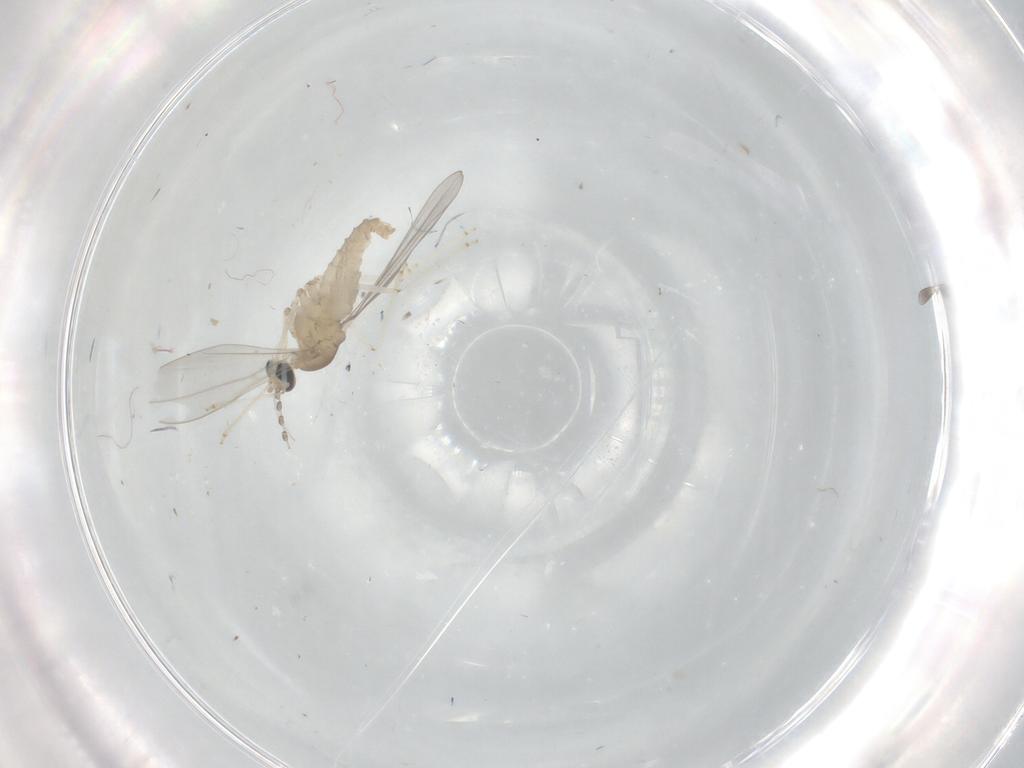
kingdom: Animalia
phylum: Arthropoda
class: Insecta
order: Diptera
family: Cecidomyiidae
